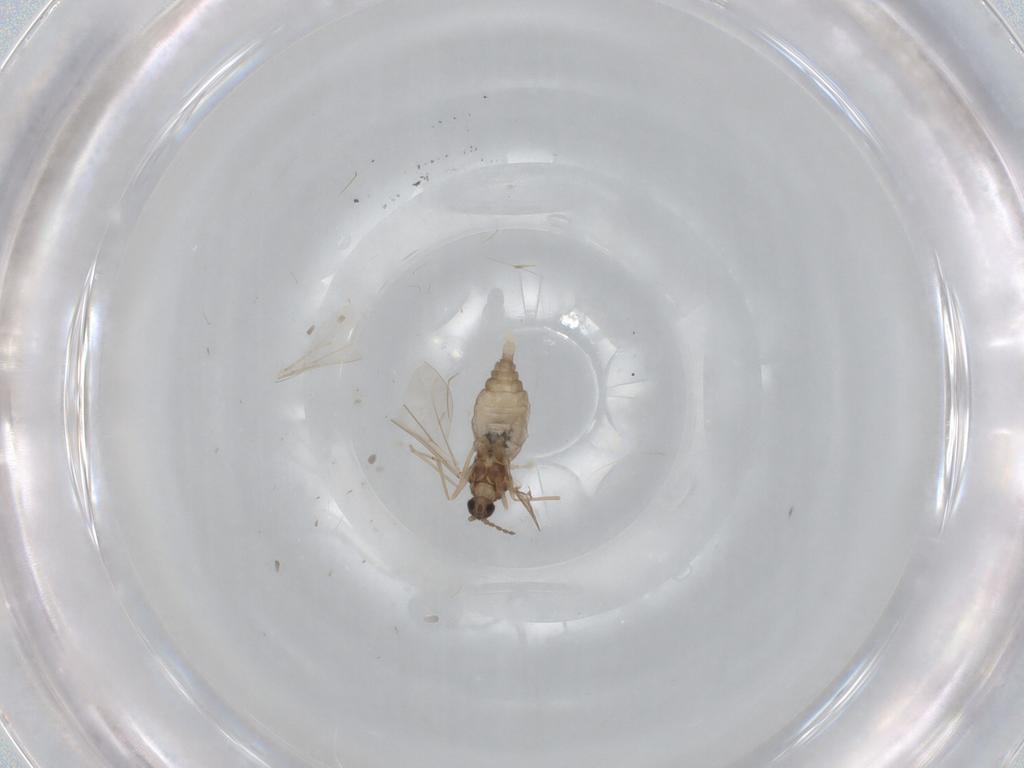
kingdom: Animalia
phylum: Arthropoda
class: Insecta
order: Diptera
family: Cecidomyiidae
